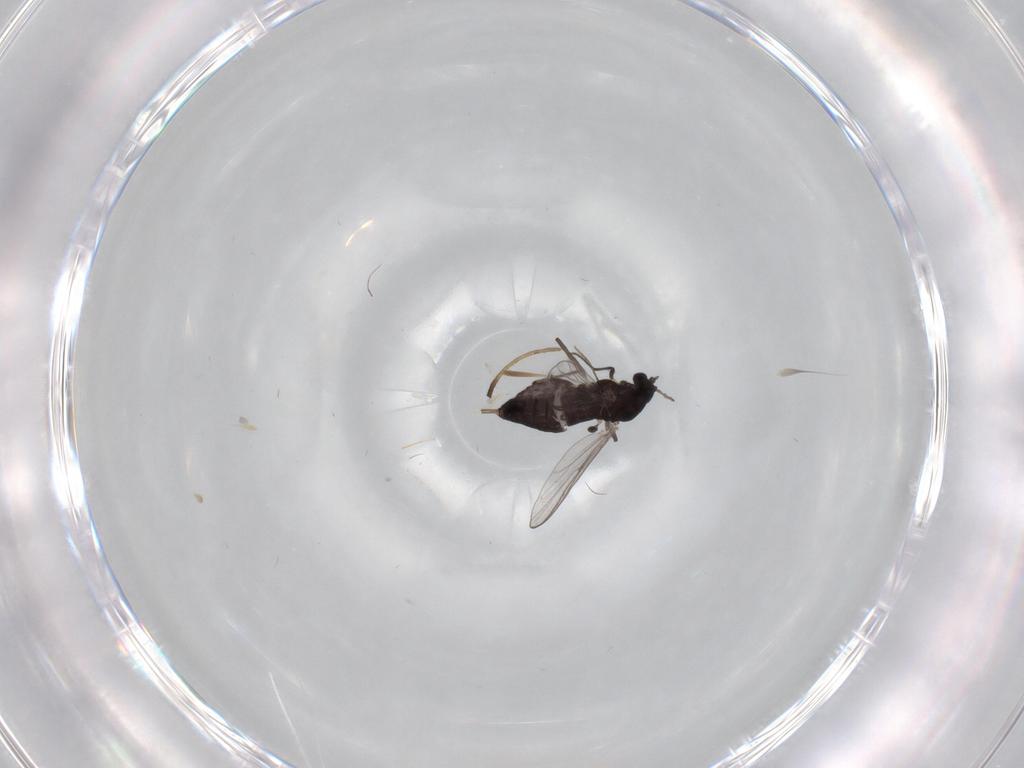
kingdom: Animalia
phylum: Arthropoda
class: Insecta
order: Diptera
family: Chironomidae
